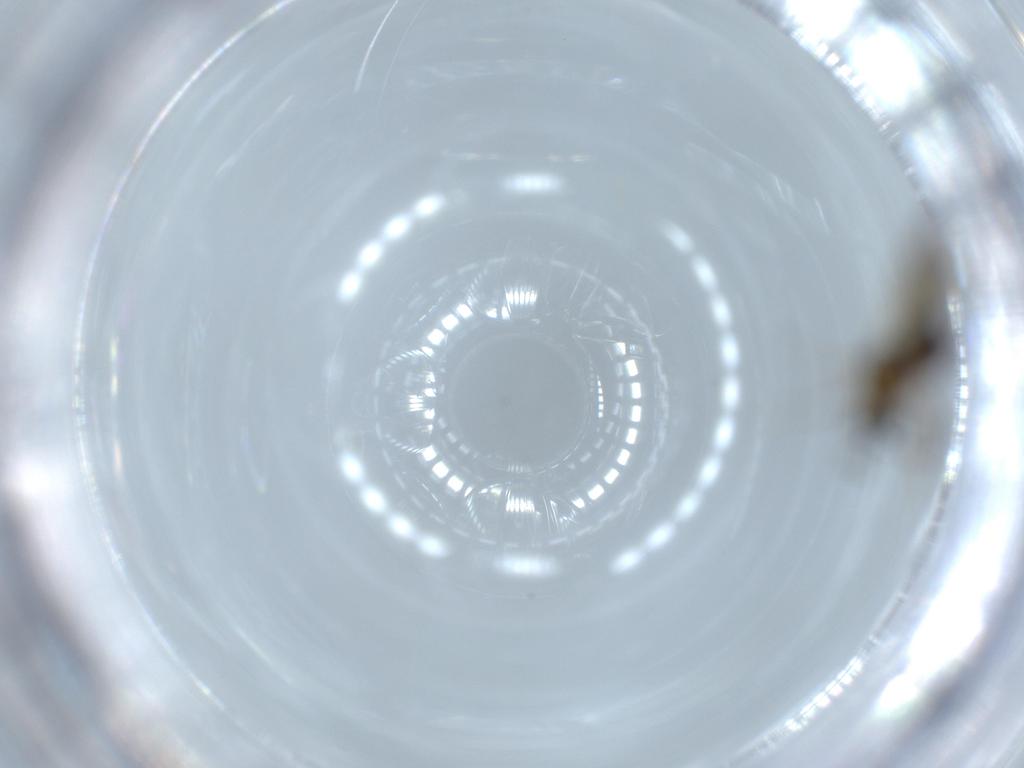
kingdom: Animalia
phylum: Arthropoda
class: Insecta
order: Hymenoptera
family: Figitidae
